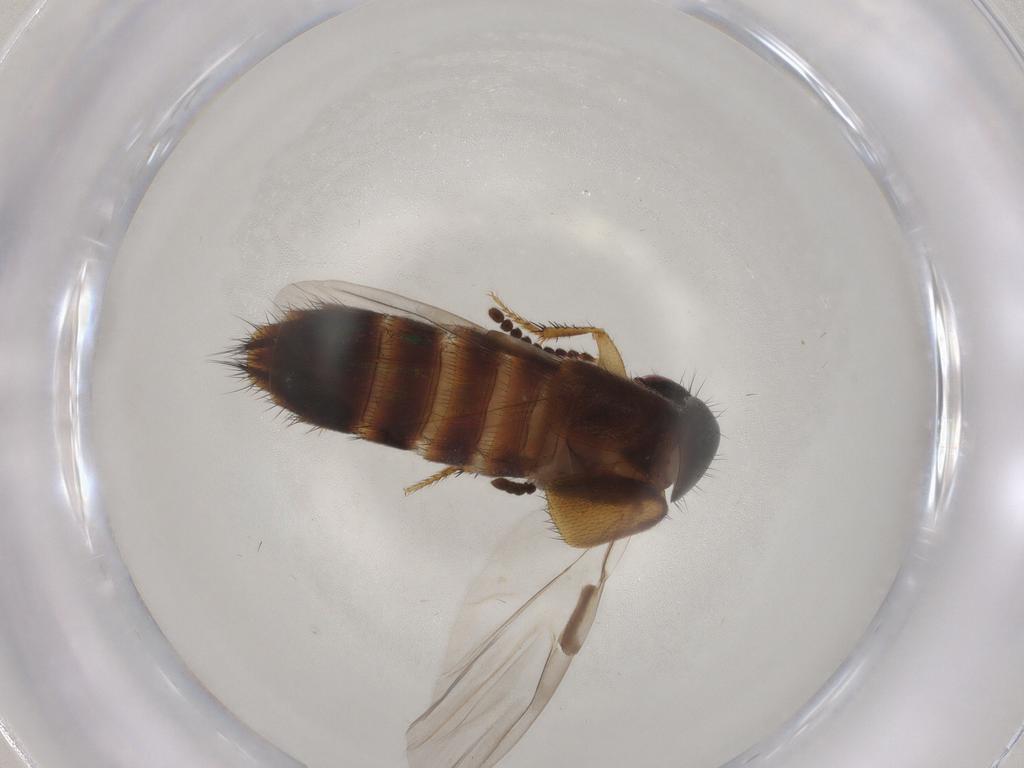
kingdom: Animalia
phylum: Arthropoda
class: Insecta
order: Coleoptera
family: Staphylinidae
